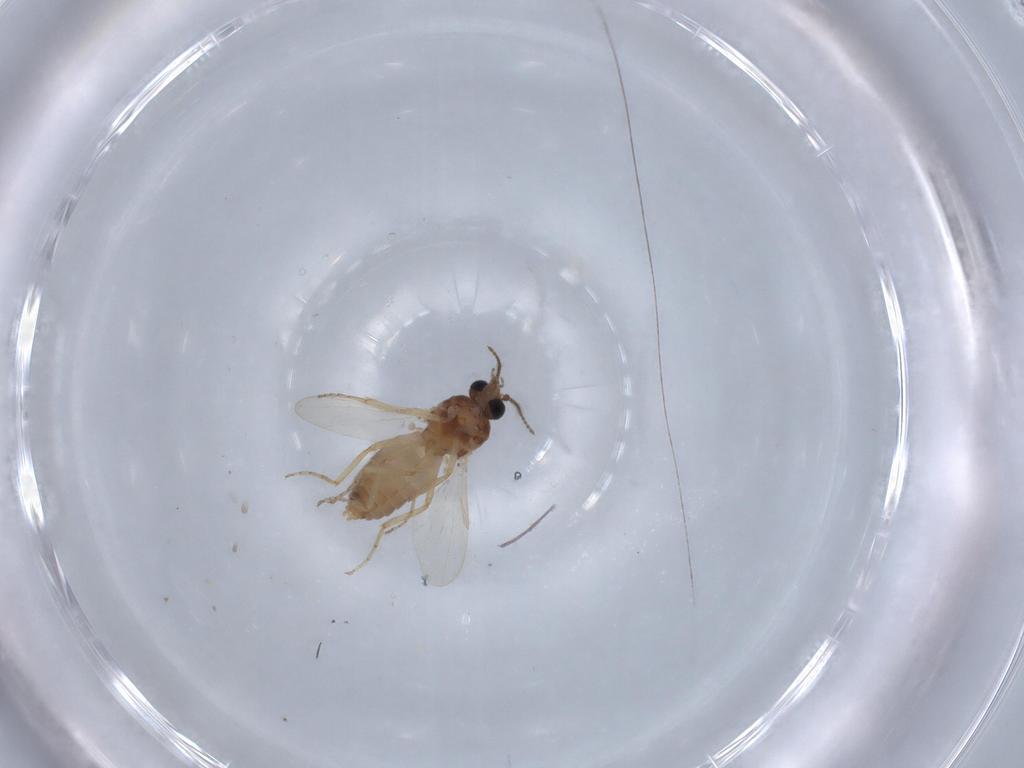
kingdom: Animalia
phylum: Arthropoda
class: Insecta
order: Diptera
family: Ceratopogonidae
